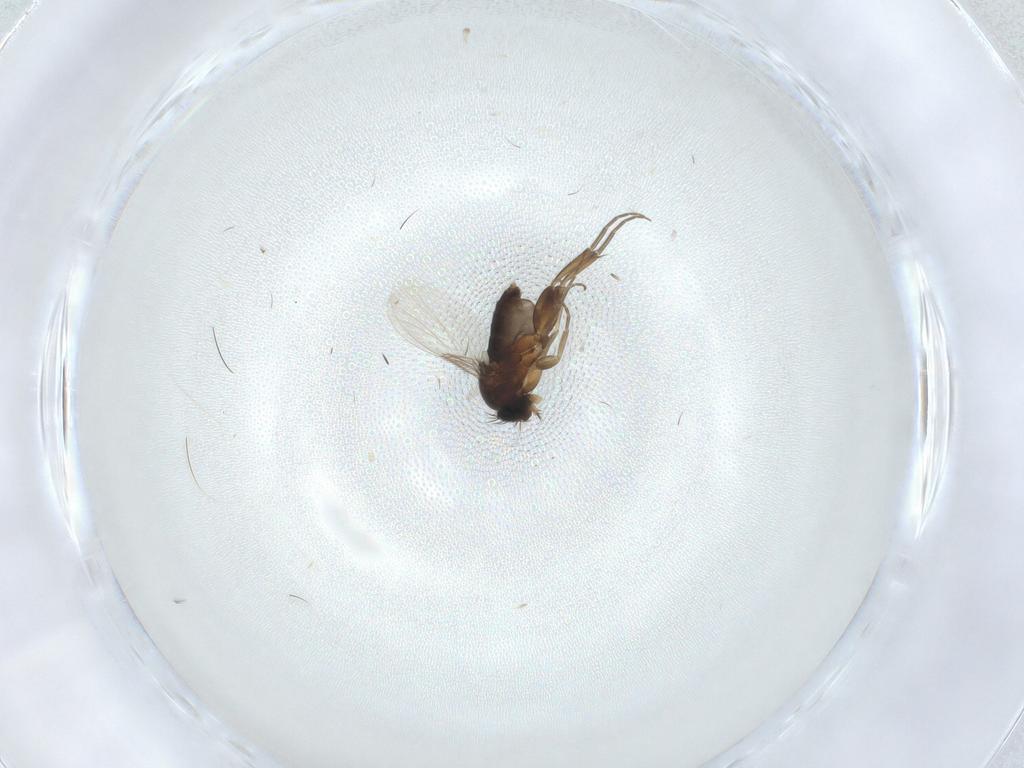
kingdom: Animalia
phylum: Arthropoda
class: Insecta
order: Diptera
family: Phoridae
